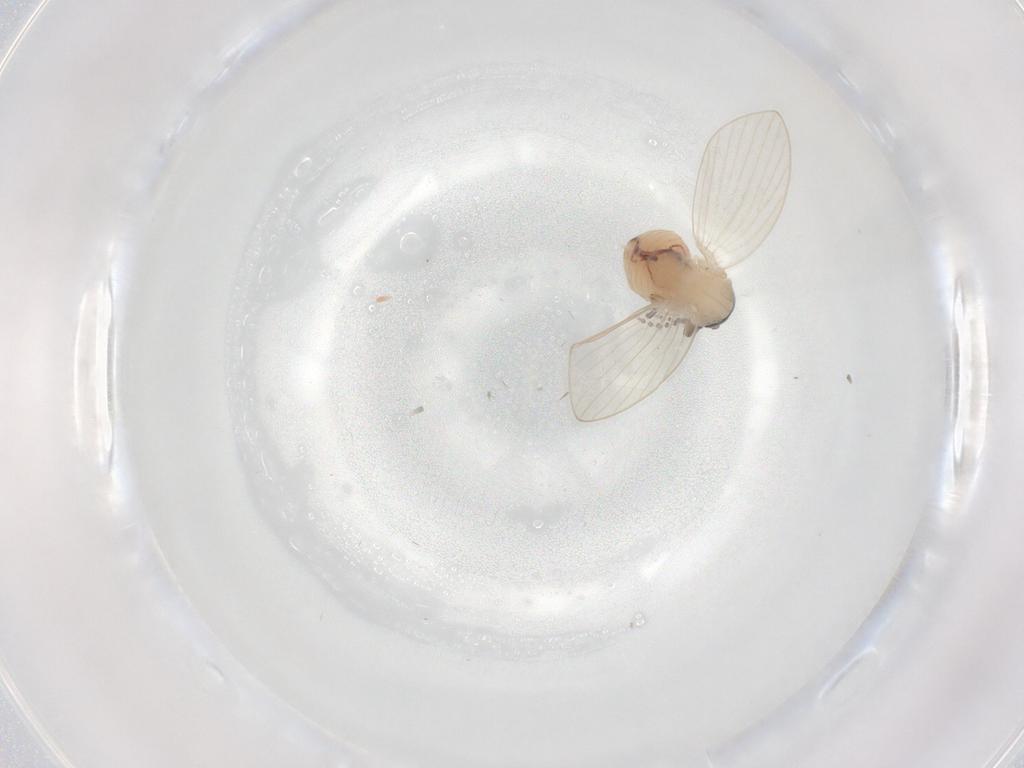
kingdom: Animalia
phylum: Arthropoda
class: Insecta
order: Diptera
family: Psychodidae
